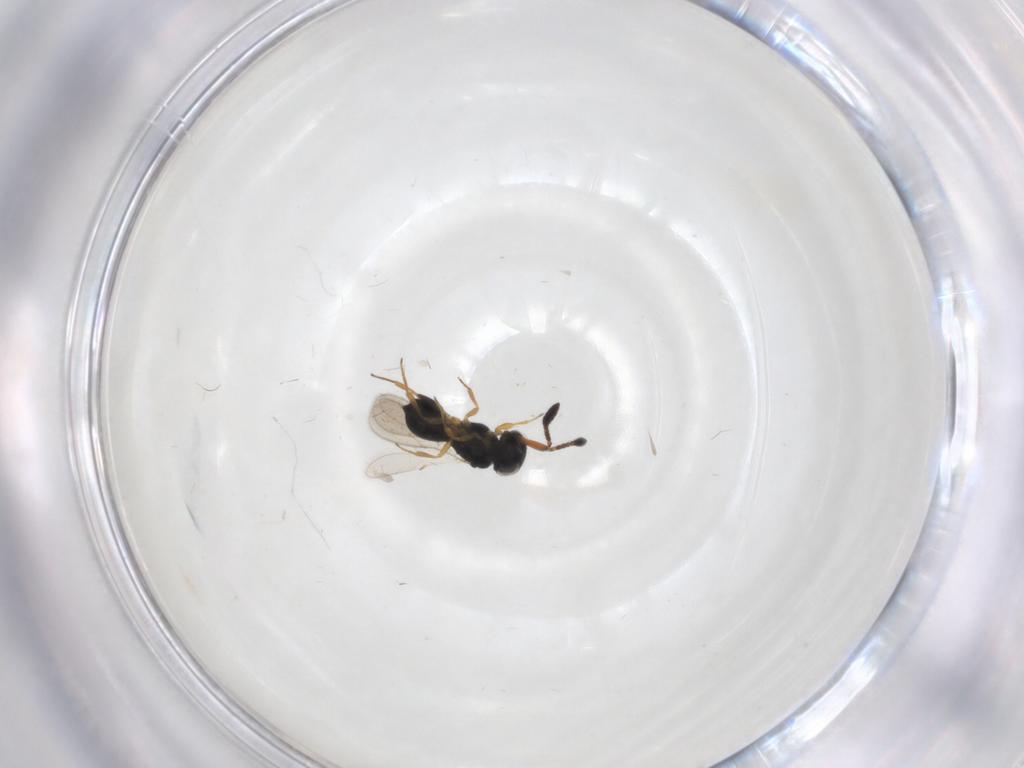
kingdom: Animalia
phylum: Arthropoda
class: Insecta
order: Hymenoptera
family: Scelionidae
